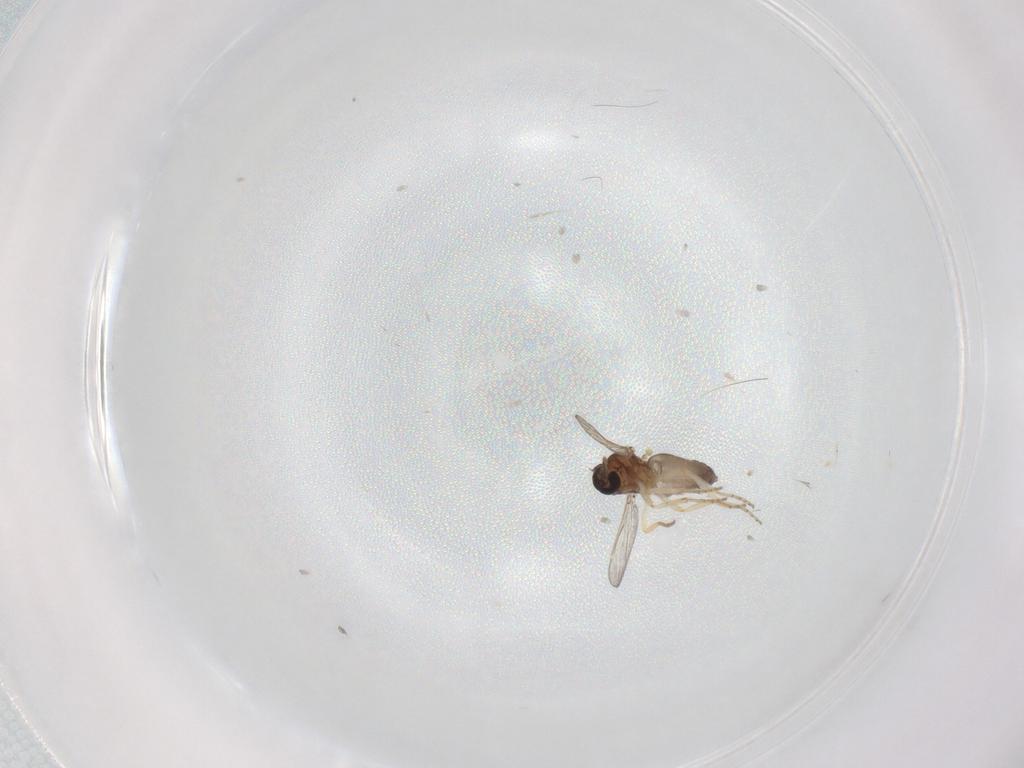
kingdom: Animalia
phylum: Arthropoda
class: Insecta
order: Diptera
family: Ceratopogonidae
